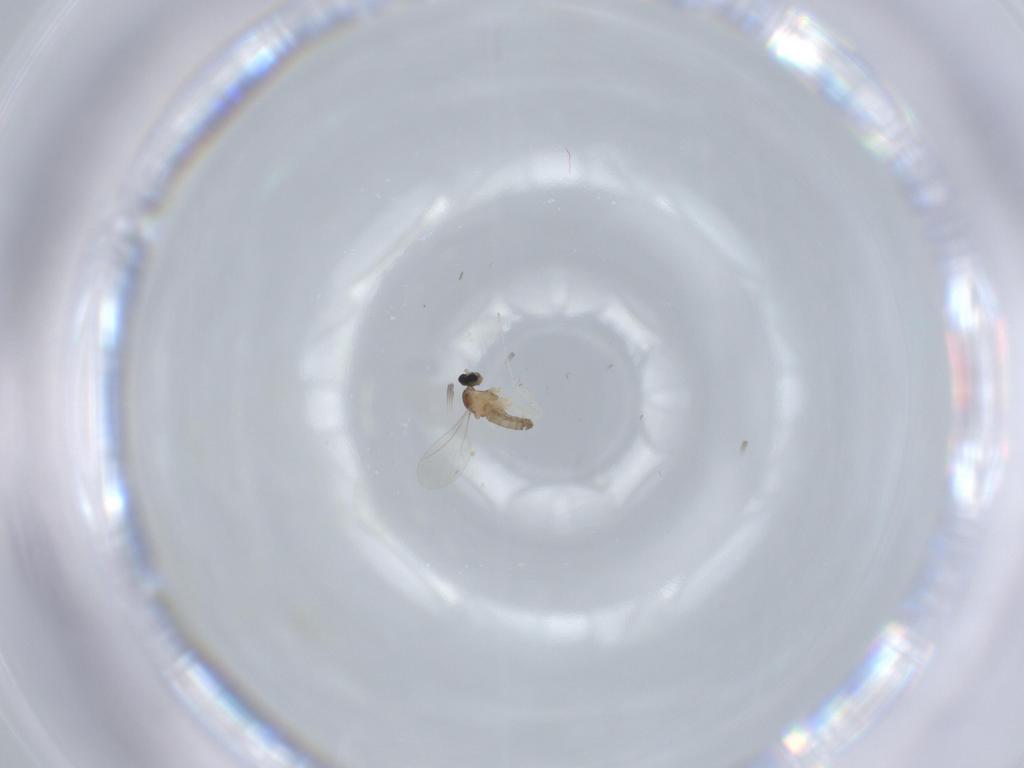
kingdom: Animalia
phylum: Arthropoda
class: Insecta
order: Diptera
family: Cecidomyiidae
